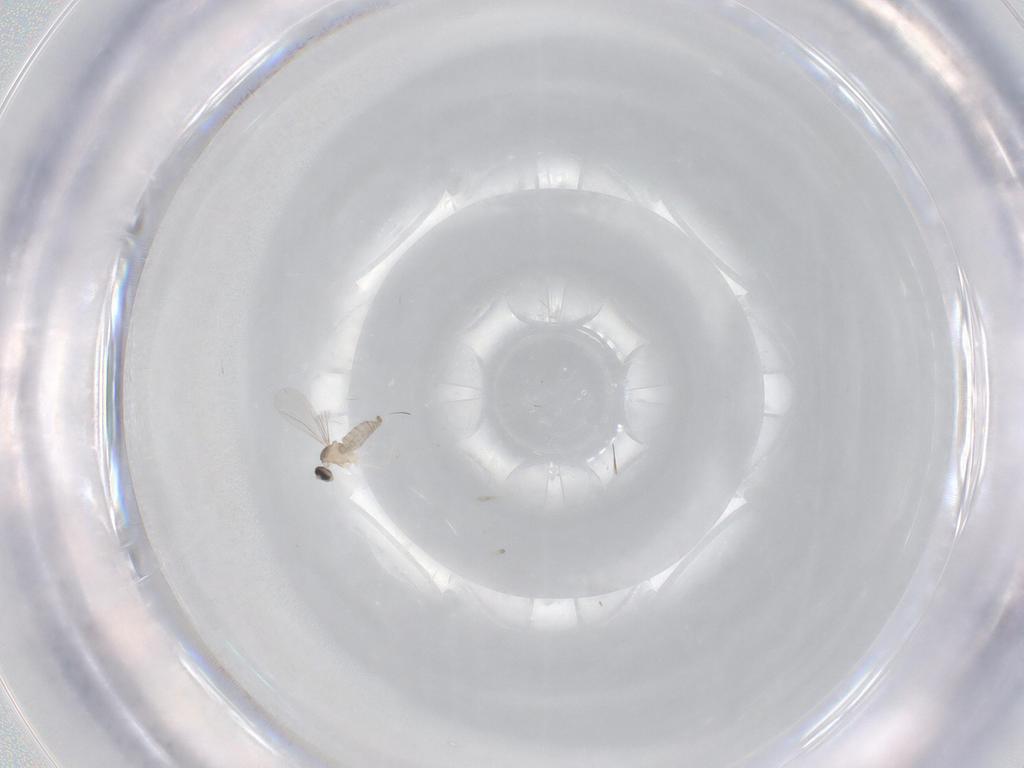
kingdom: Animalia
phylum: Arthropoda
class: Insecta
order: Diptera
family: Cecidomyiidae
